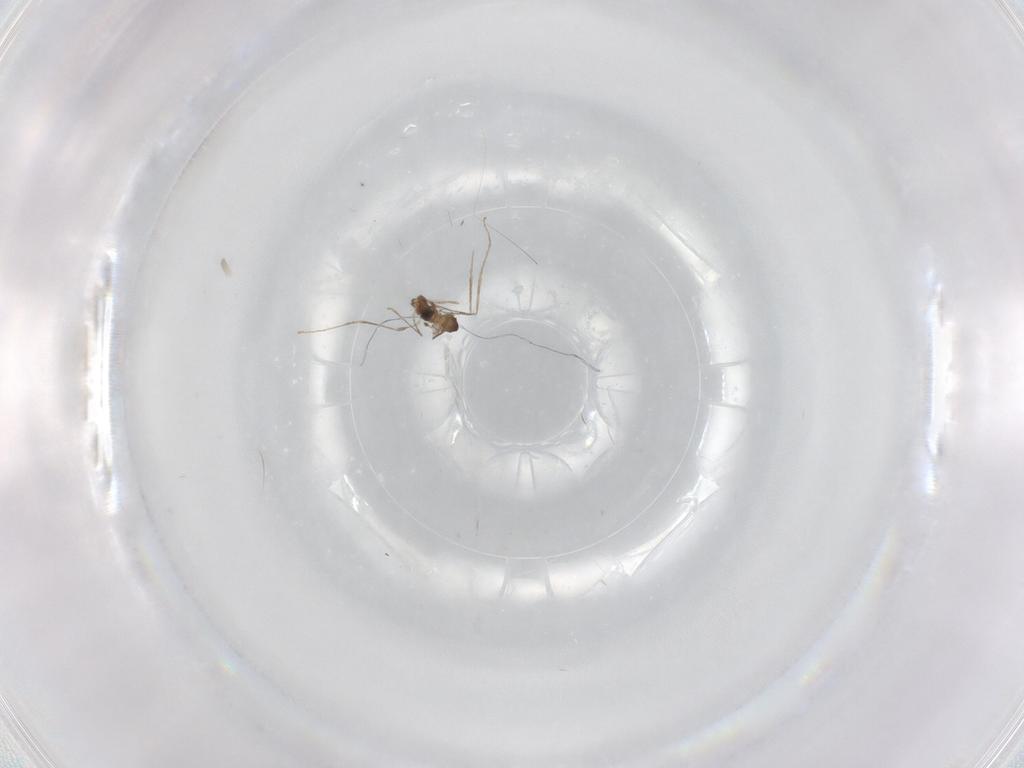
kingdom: Animalia
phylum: Arthropoda
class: Insecta
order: Diptera
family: Cecidomyiidae
